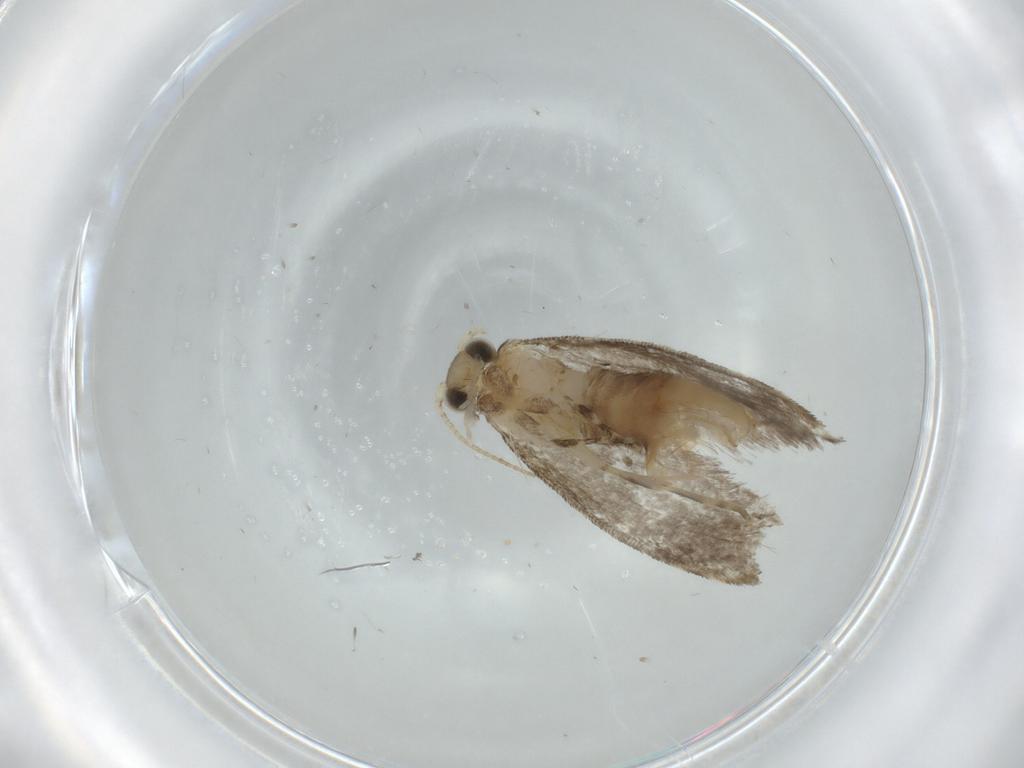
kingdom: Animalia
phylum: Arthropoda
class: Insecta
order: Lepidoptera
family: Tineidae
